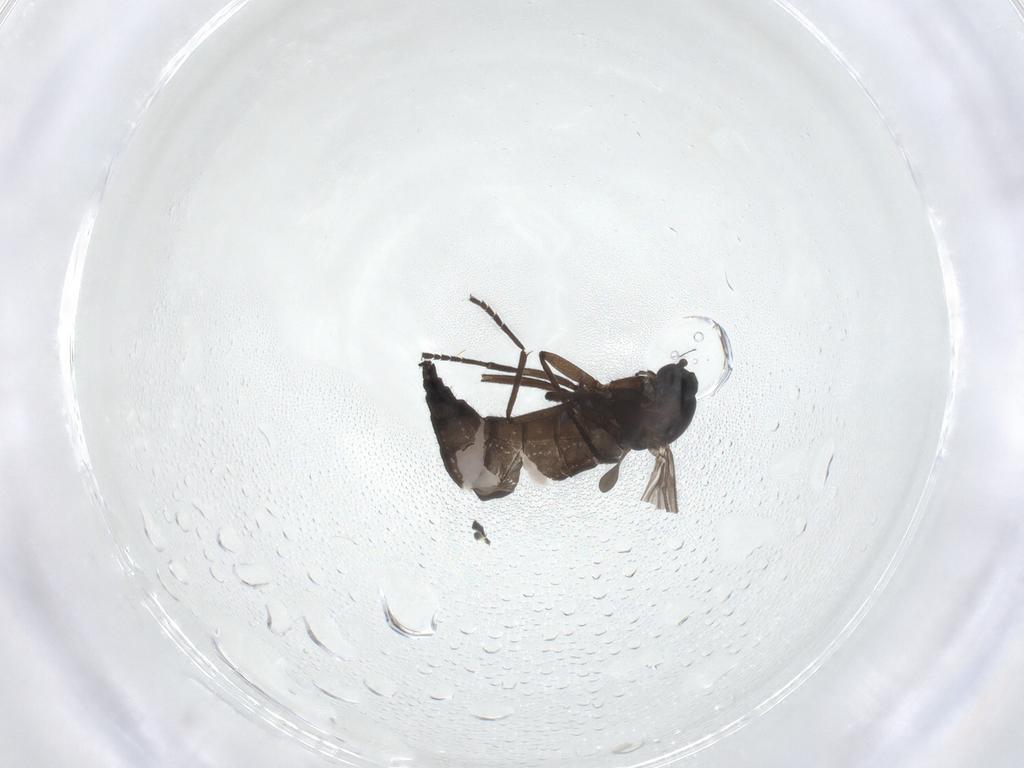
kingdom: Animalia
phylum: Arthropoda
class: Insecta
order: Diptera
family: Sciaridae
